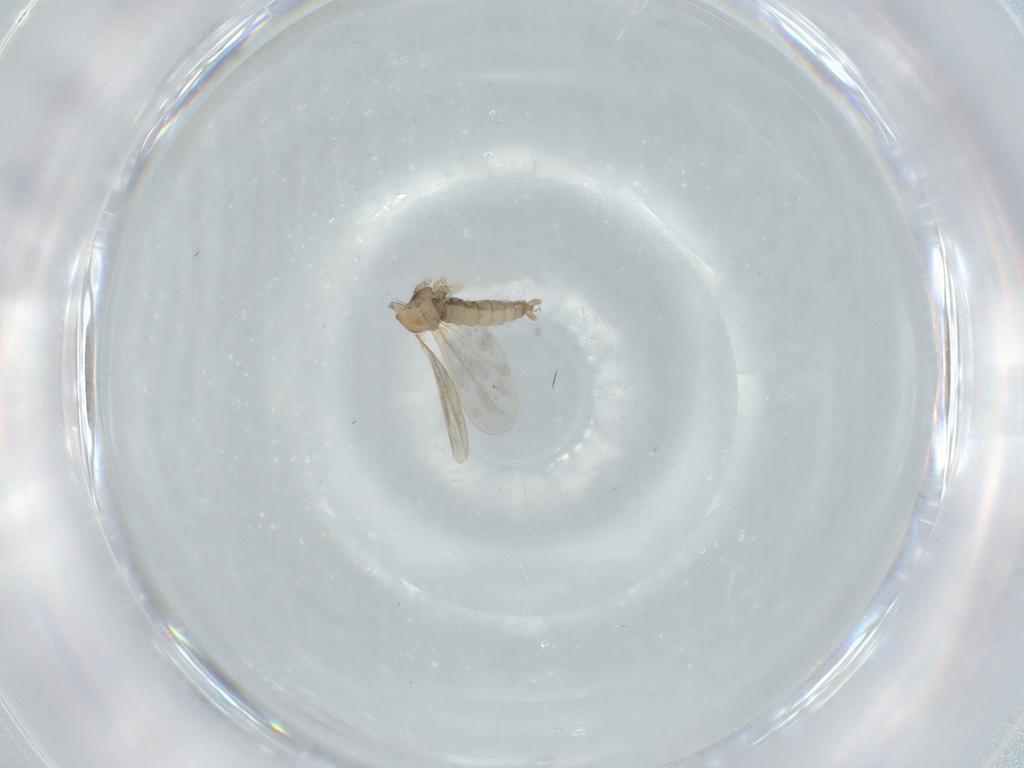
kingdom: Animalia
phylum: Arthropoda
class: Insecta
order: Diptera
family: Cecidomyiidae
